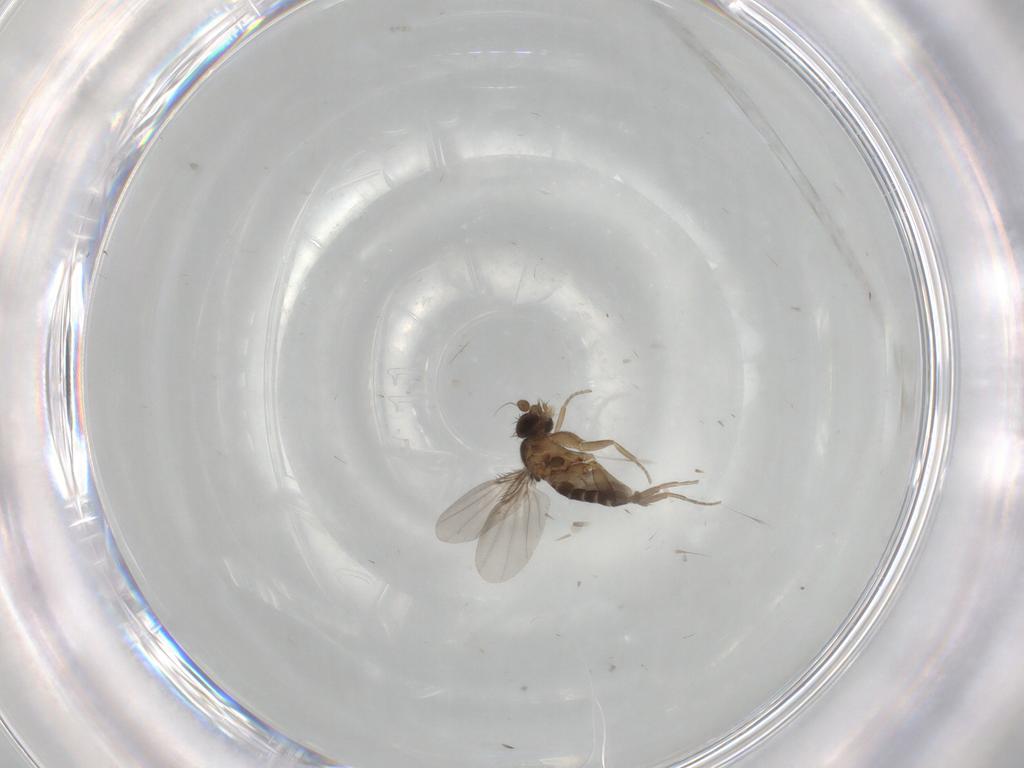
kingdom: Animalia
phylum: Arthropoda
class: Insecta
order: Diptera
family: Phoridae
